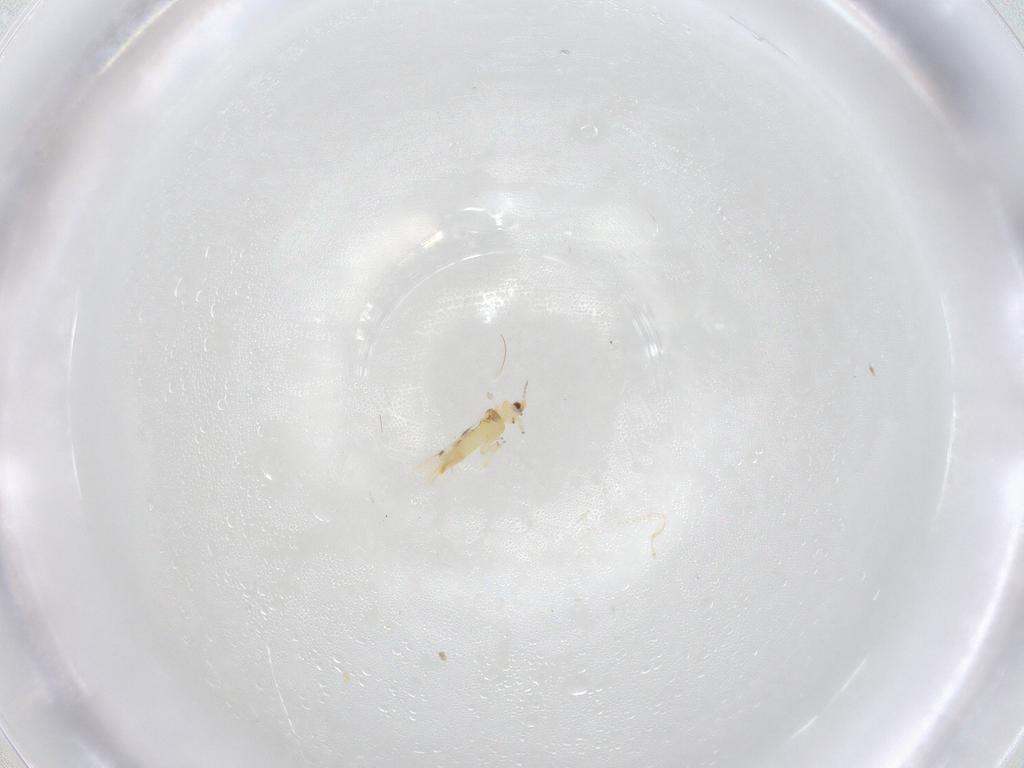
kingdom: Animalia
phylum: Arthropoda
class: Insecta
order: Thysanoptera
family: Thripidae
